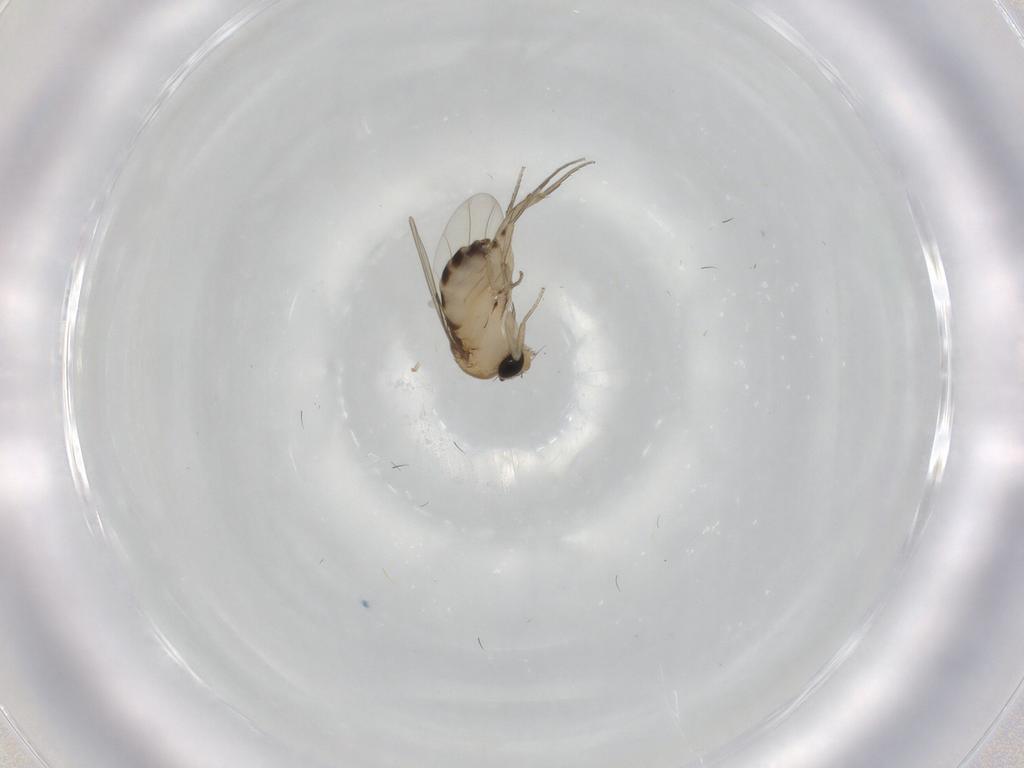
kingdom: Animalia
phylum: Arthropoda
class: Insecta
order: Diptera
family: Phoridae
